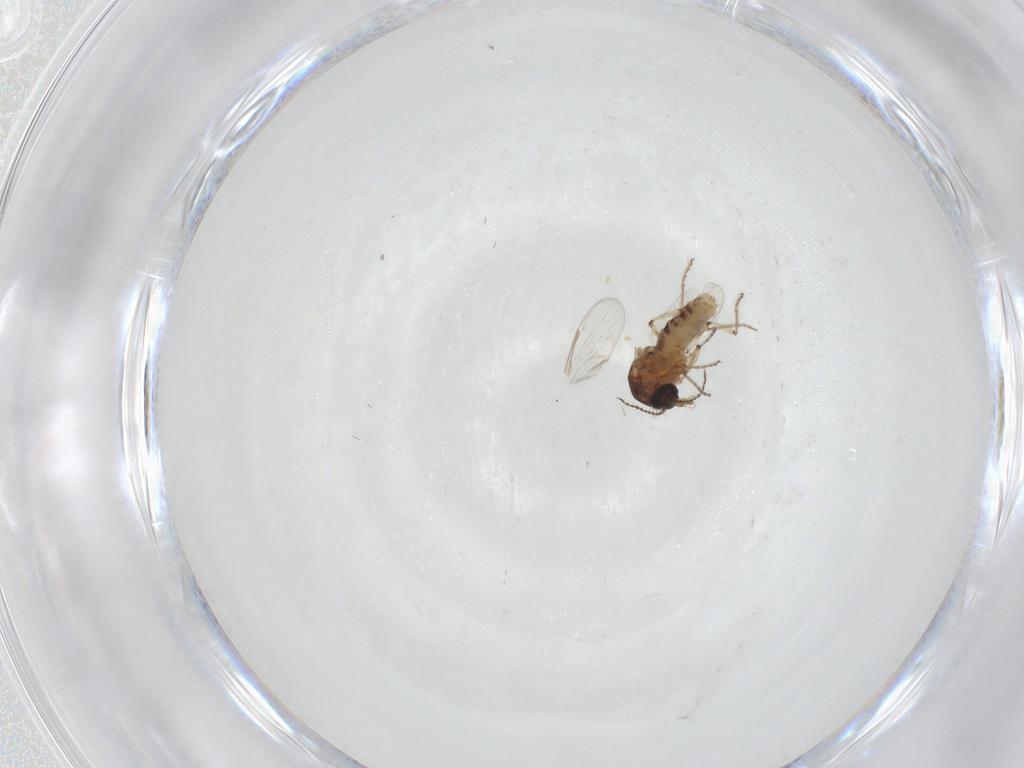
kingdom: Animalia
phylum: Arthropoda
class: Insecta
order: Diptera
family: Ceratopogonidae
